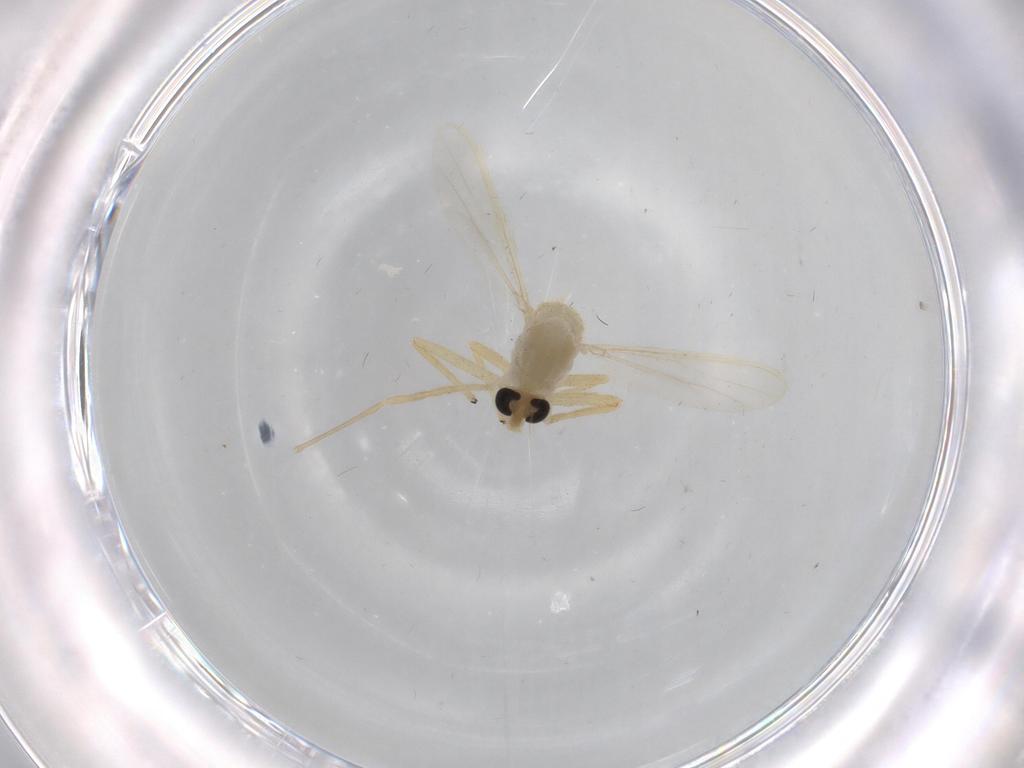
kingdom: Animalia
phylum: Arthropoda
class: Insecta
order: Diptera
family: Chironomidae
